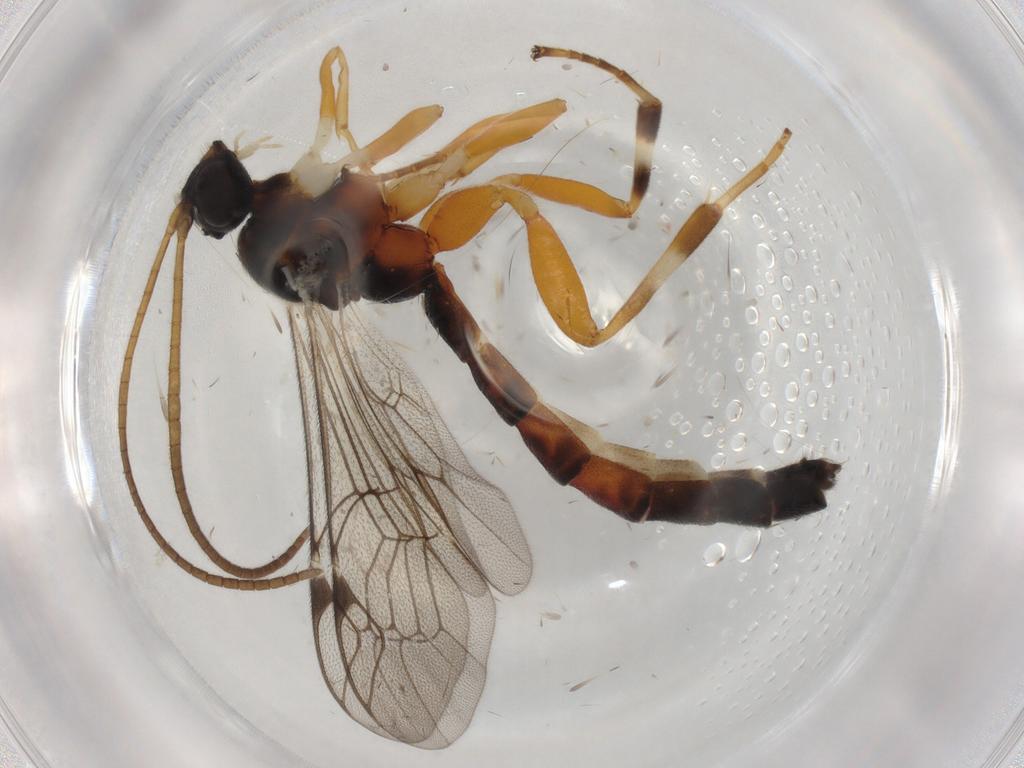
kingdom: Animalia
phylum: Arthropoda
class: Insecta
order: Hymenoptera
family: Ichneumonidae
